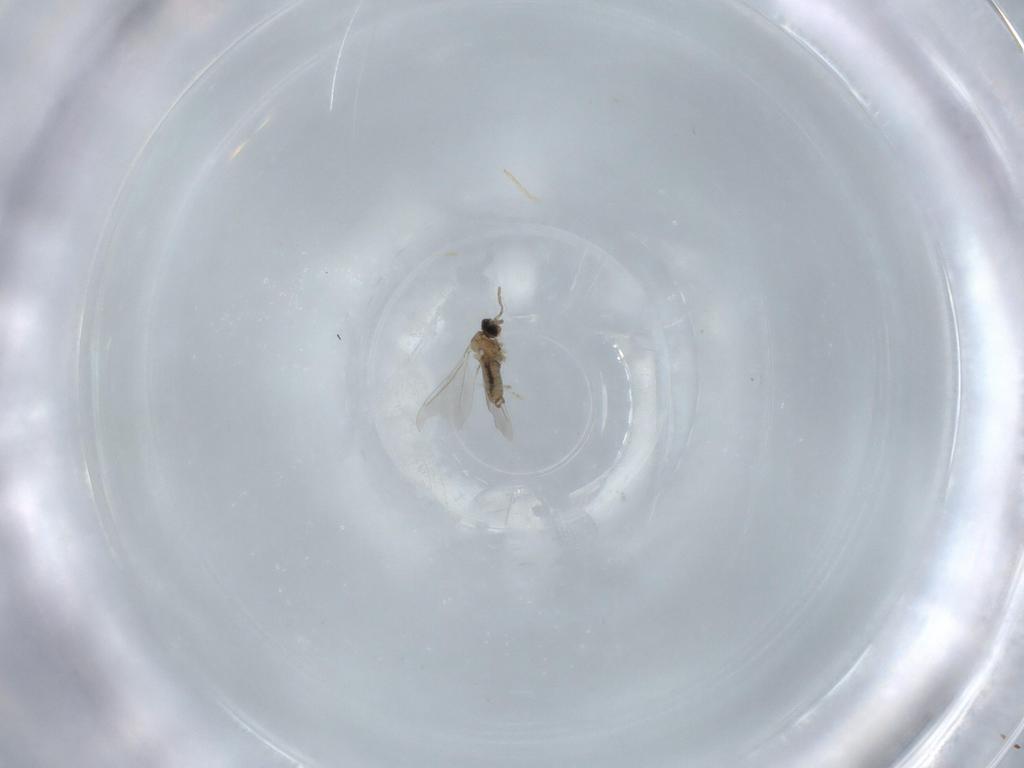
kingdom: Animalia
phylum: Arthropoda
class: Insecta
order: Diptera
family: Cecidomyiidae
